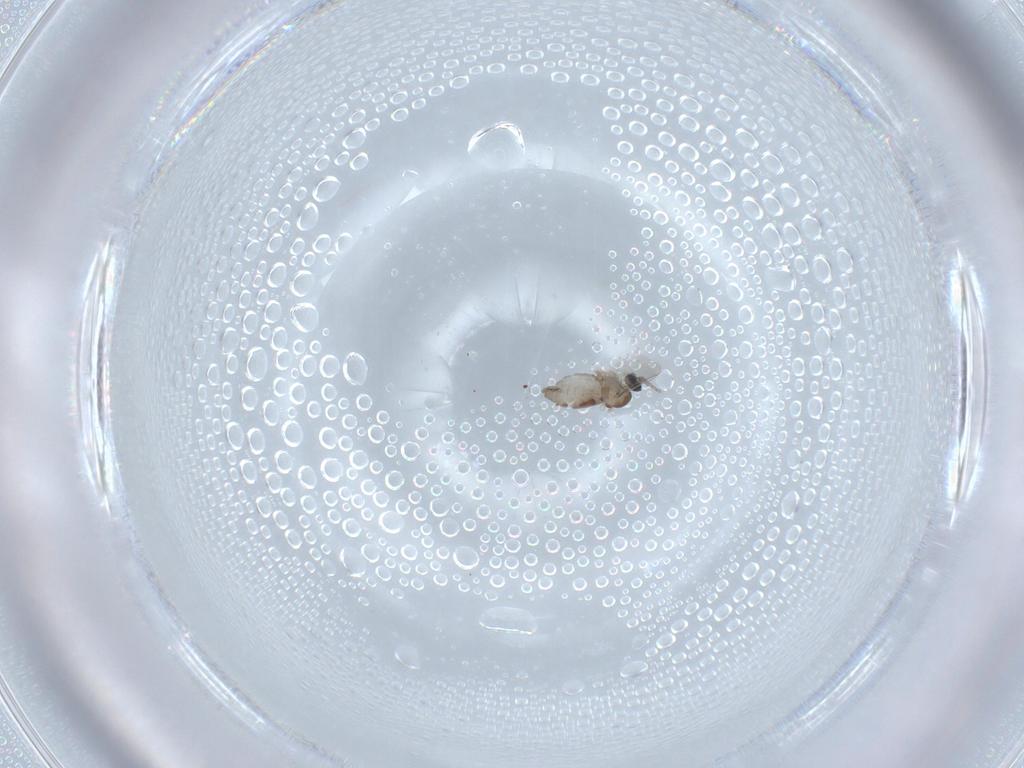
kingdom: Animalia
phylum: Arthropoda
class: Insecta
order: Diptera
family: Cecidomyiidae
